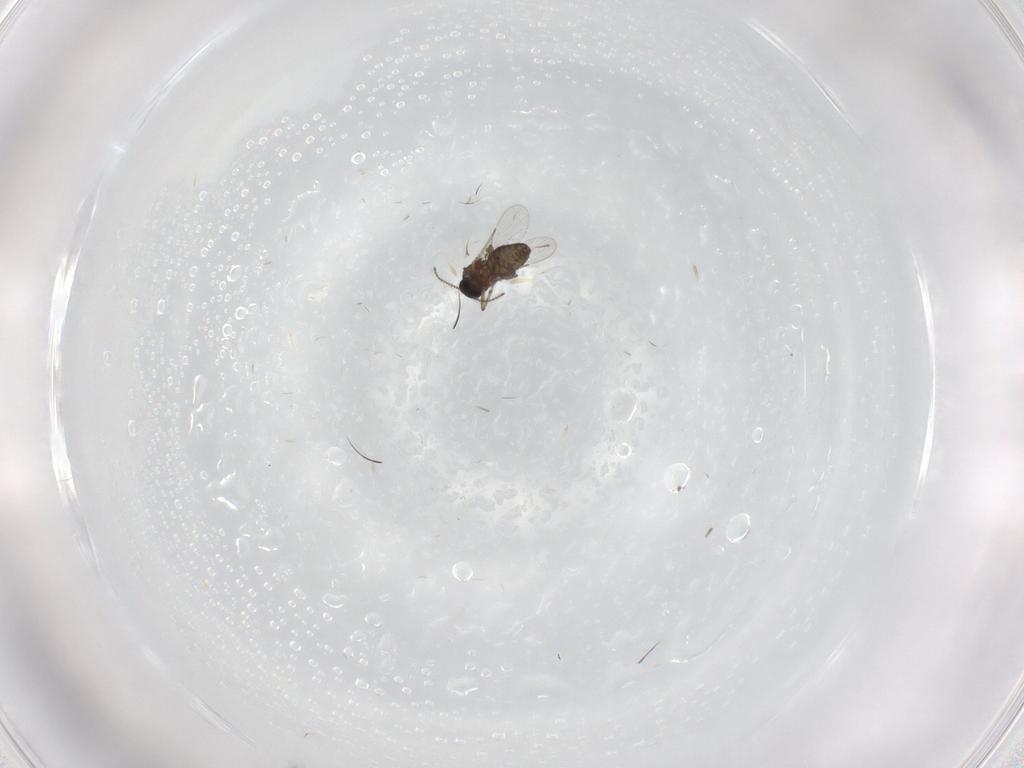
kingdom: Animalia
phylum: Arthropoda
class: Insecta
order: Diptera
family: Ceratopogonidae
